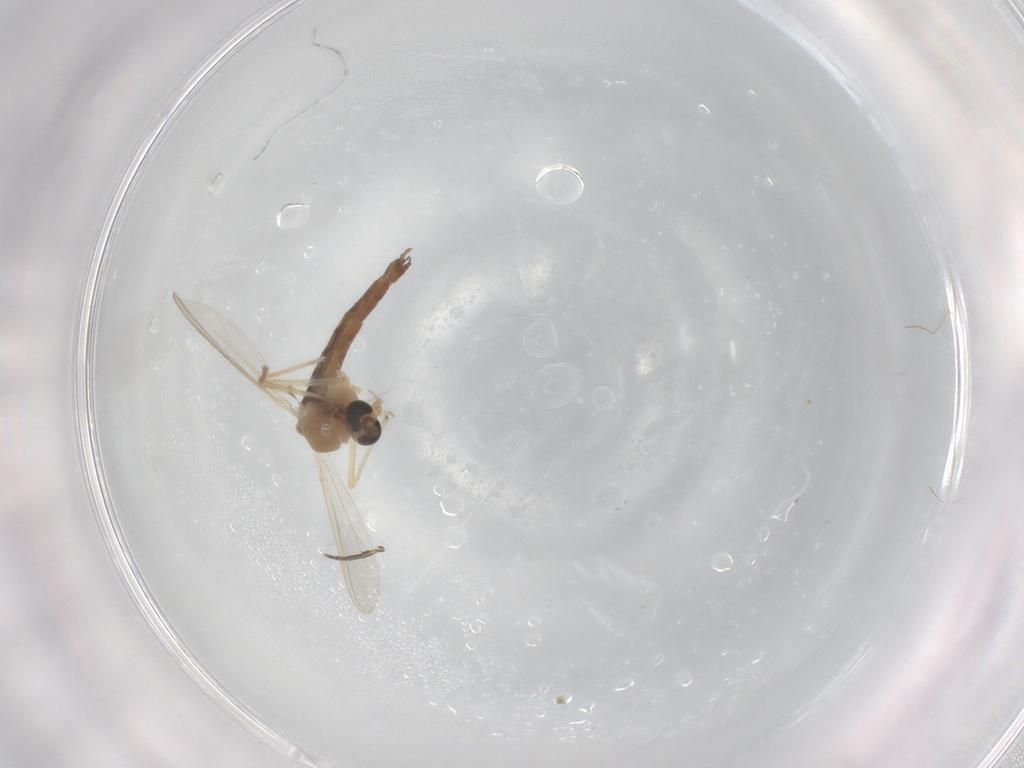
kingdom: Animalia
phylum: Arthropoda
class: Insecta
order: Diptera
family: Chironomidae
